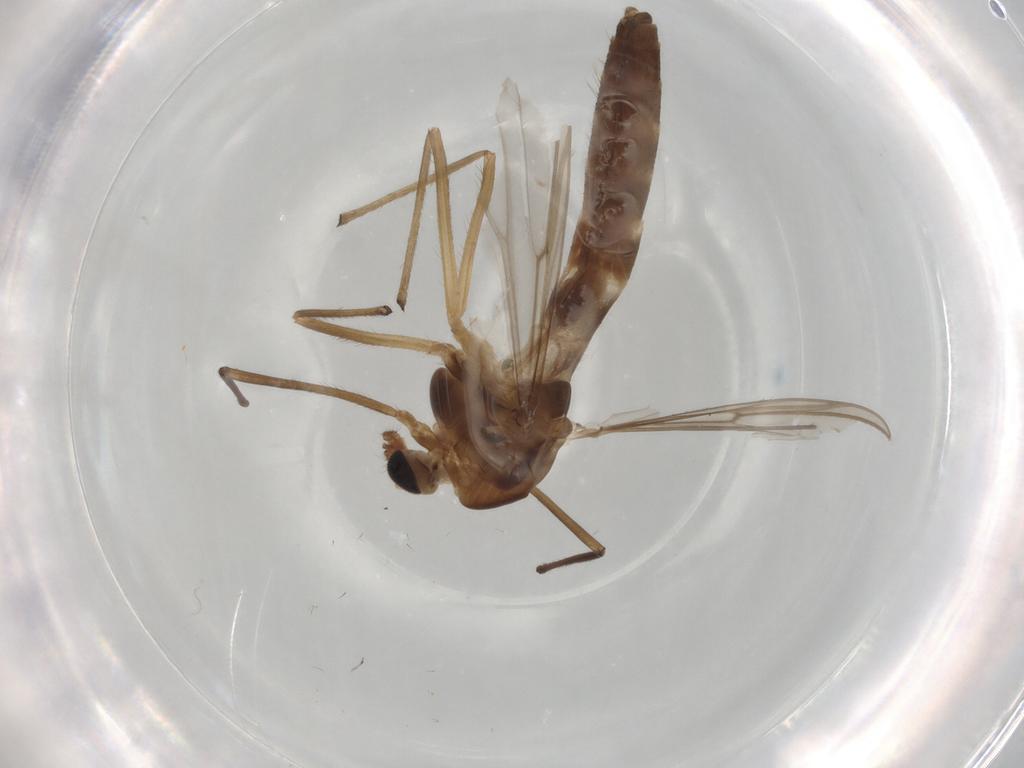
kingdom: Animalia
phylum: Arthropoda
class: Insecta
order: Diptera
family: Chironomidae
